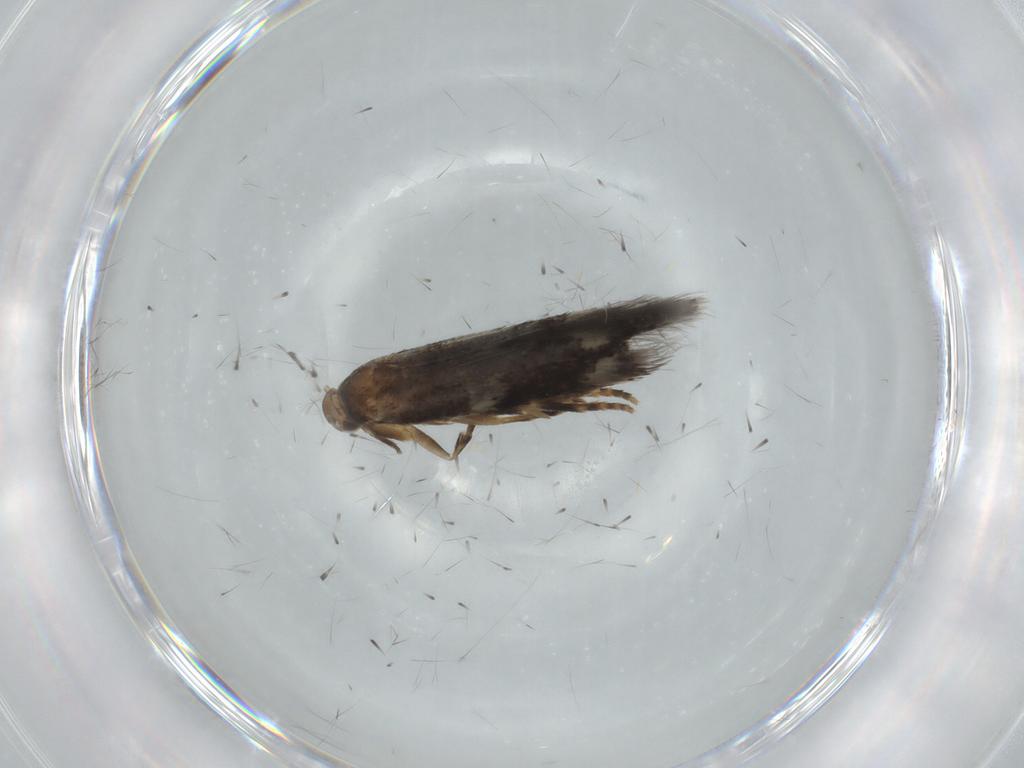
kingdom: Animalia
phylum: Arthropoda
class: Insecta
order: Lepidoptera
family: Elachistidae
